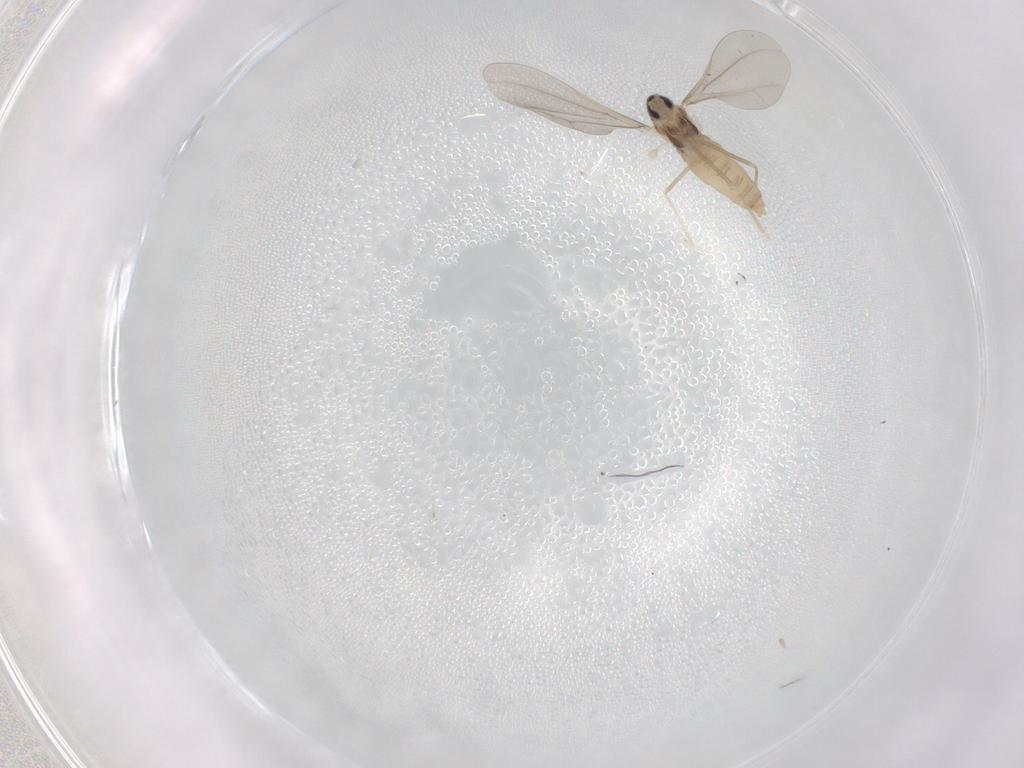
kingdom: Animalia
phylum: Arthropoda
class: Insecta
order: Diptera
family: Cecidomyiidae
